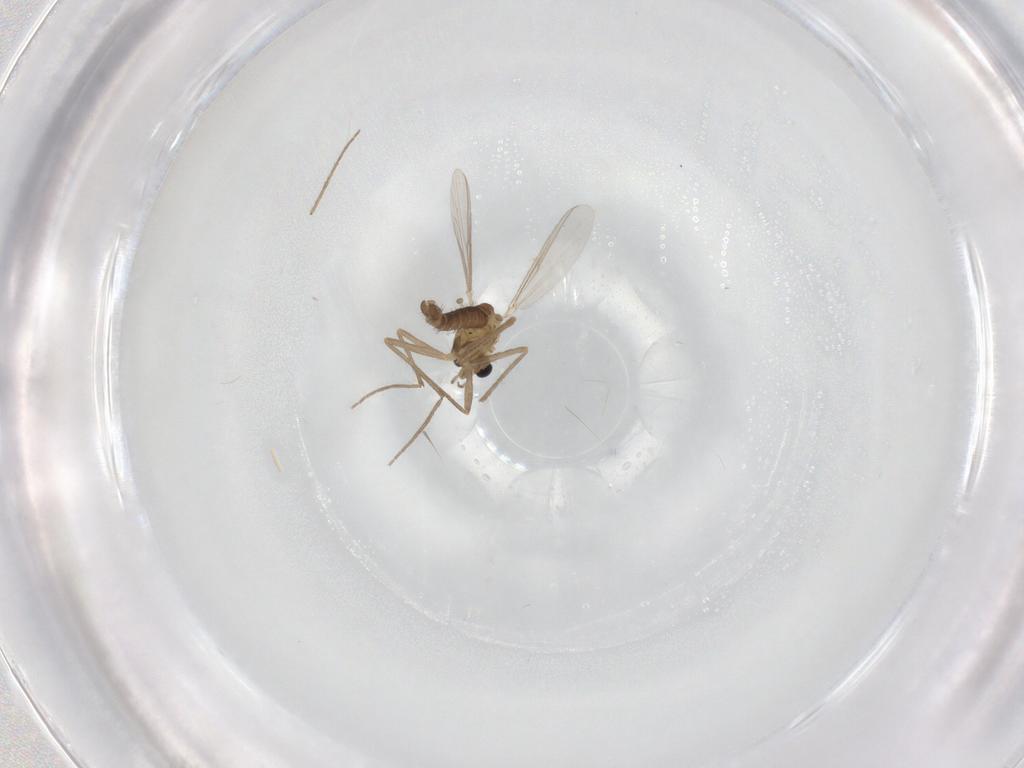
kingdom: Animalia
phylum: Arthropoda
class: Insecta
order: Diptera
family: Chironomidae
